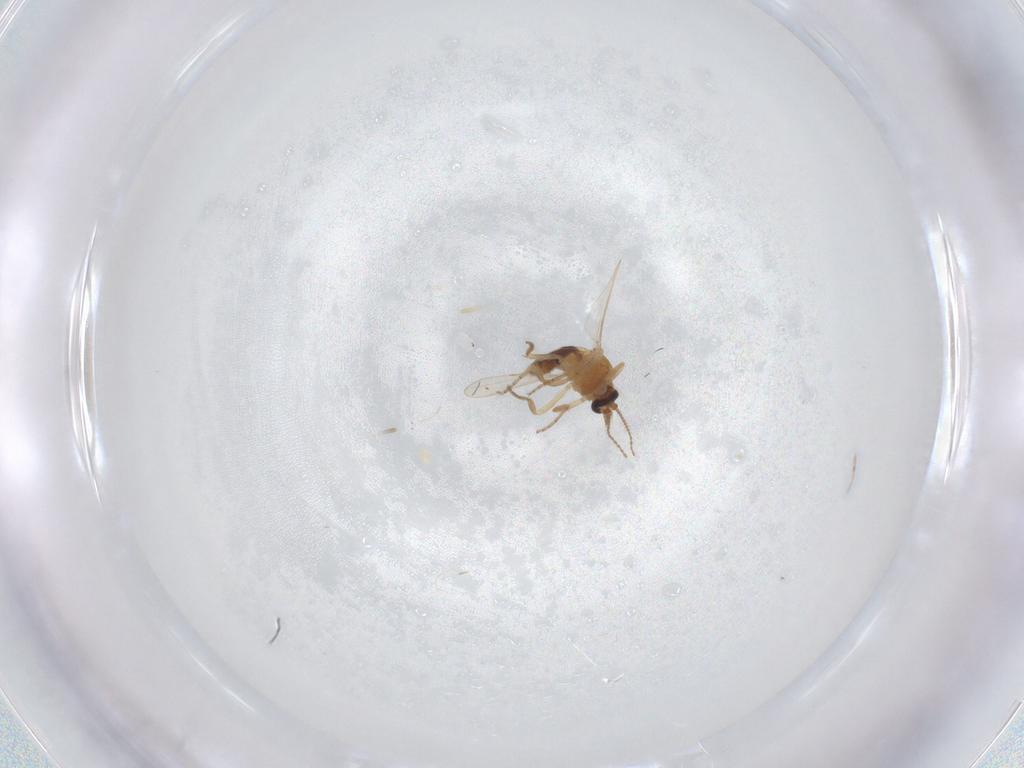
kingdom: Animalia
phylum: Arthropoda
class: Insecta
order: Diptera
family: Ceratopogonidae
